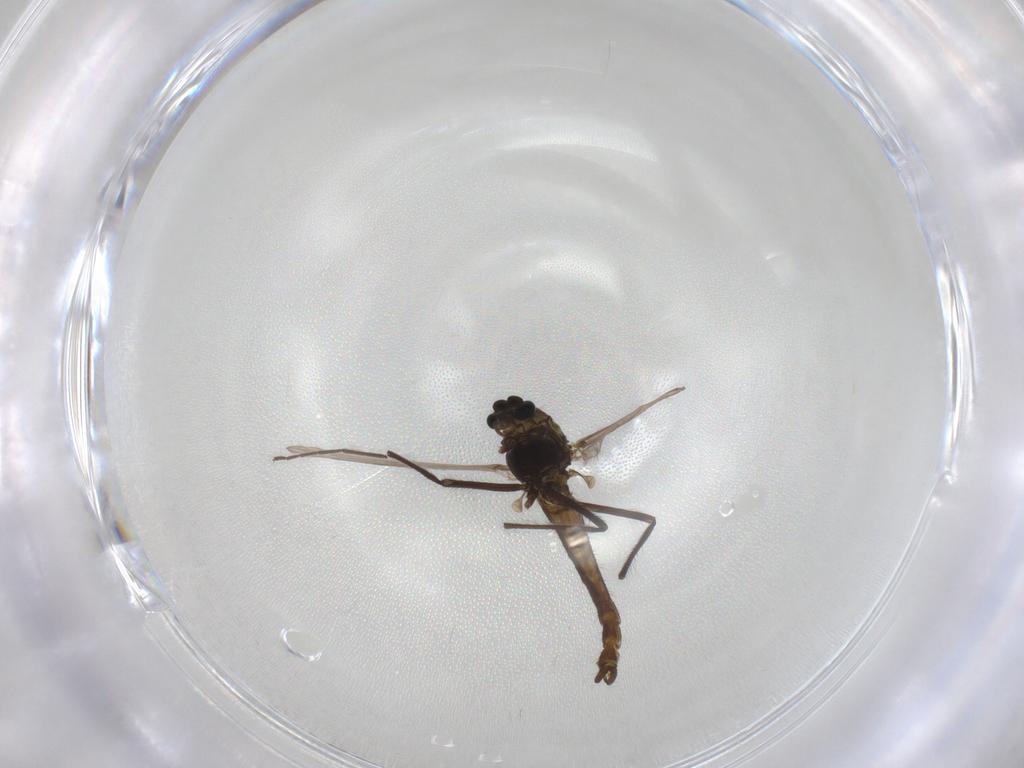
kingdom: Animalia
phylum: Arthropoda
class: Insecta
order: Diptera
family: Chironomidae
